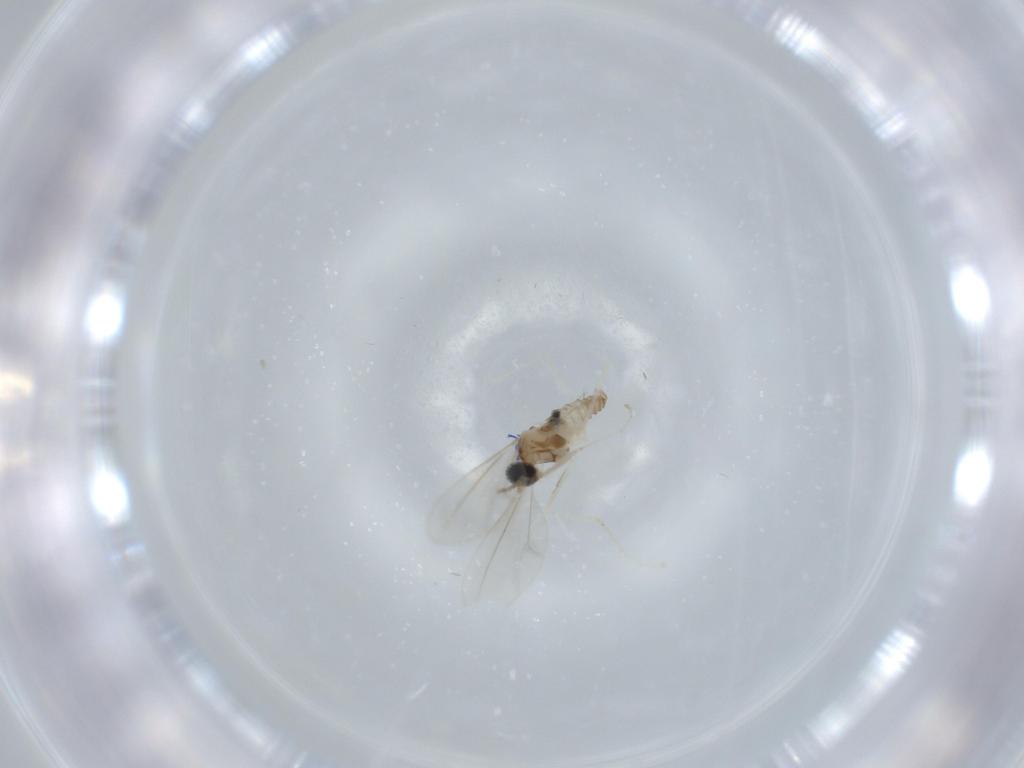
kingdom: Animalia
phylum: Arthropoda
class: Insecta
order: Diptera
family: Cecidomyiidae
